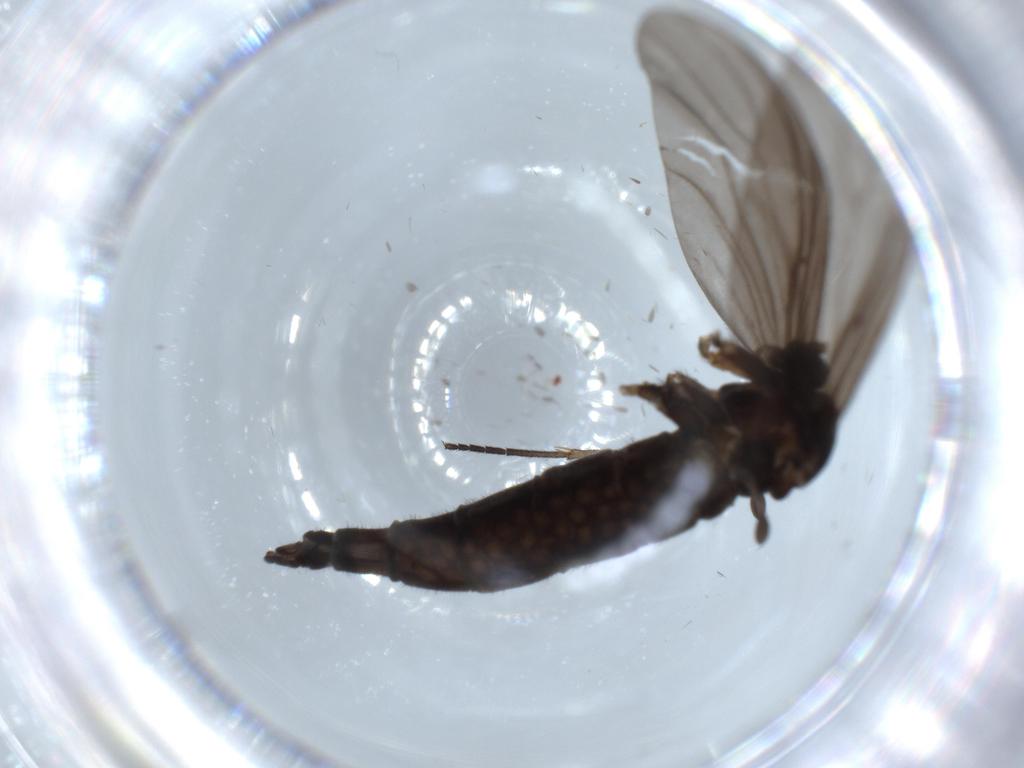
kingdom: Animalia
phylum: Arthropoda
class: Insecta
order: Diptera
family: Sciaridae
